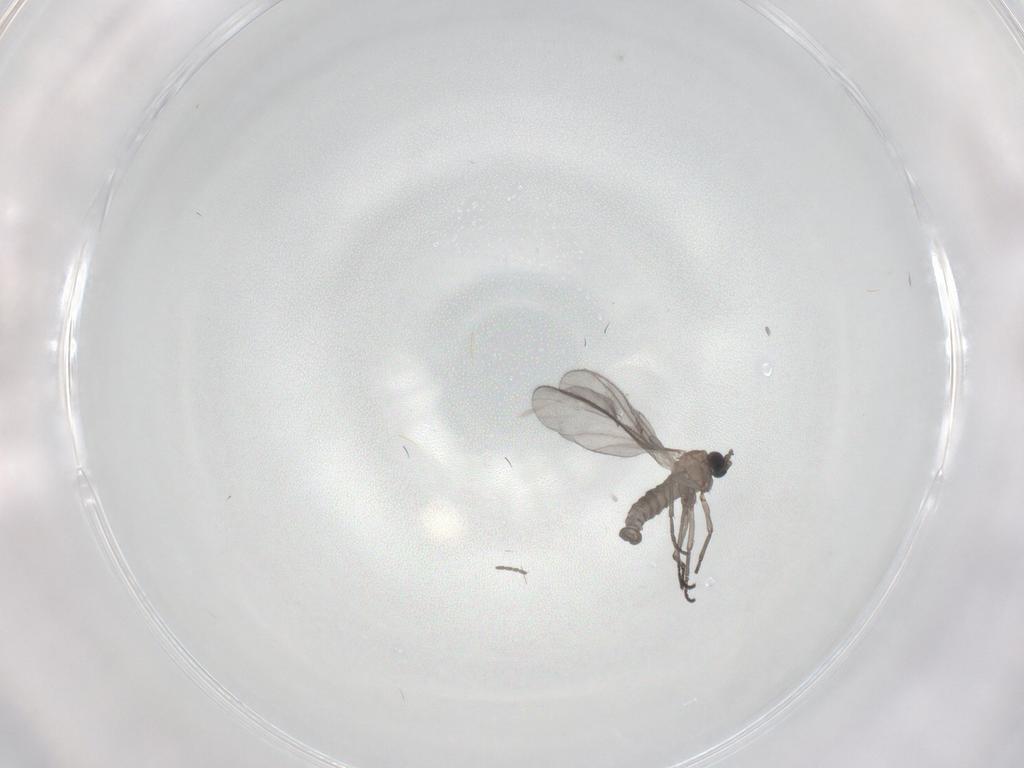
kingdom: Animalia
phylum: Arthropoda
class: Insecta
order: Diptera
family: Sciaridae
